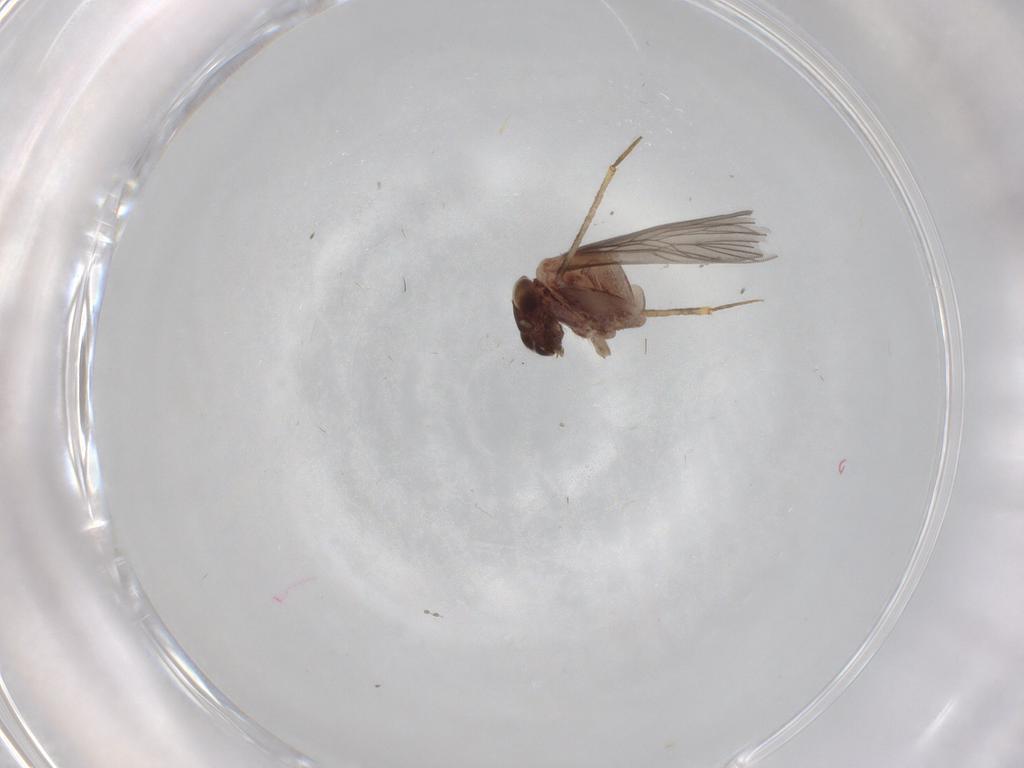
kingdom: Animalia
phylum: Arthropoda
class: Insecta
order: Psocodea
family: Lepidopsocidae
